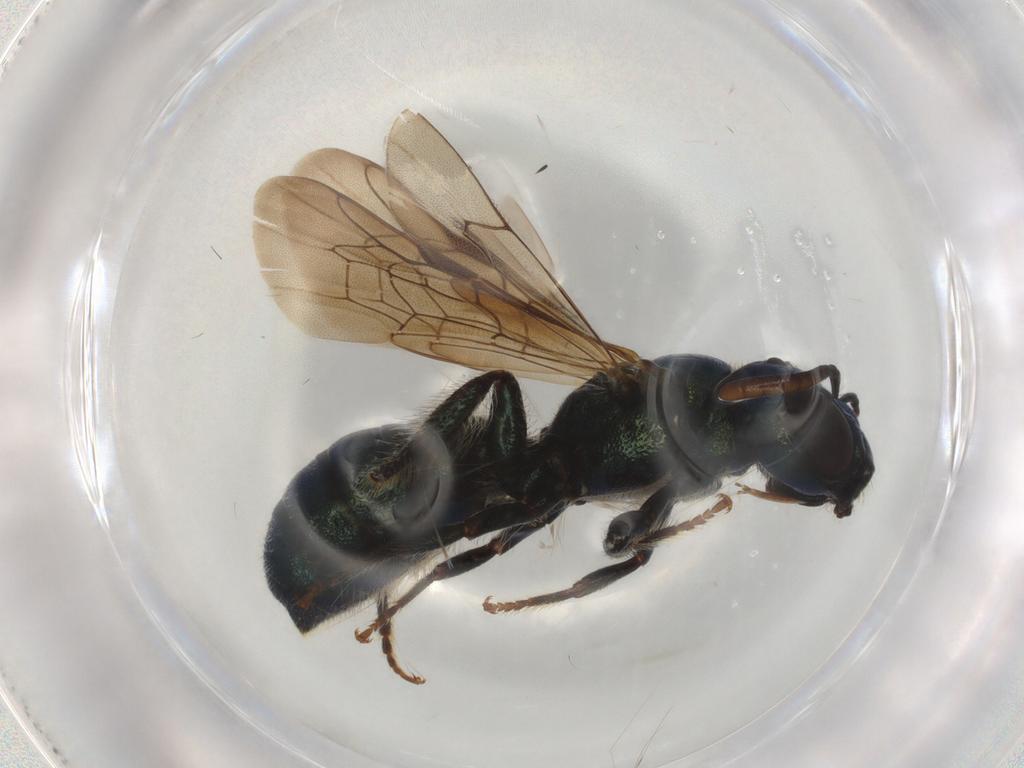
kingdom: Animalia
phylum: Arthropoda
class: Insecta
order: Hymenoptera
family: Apidae
